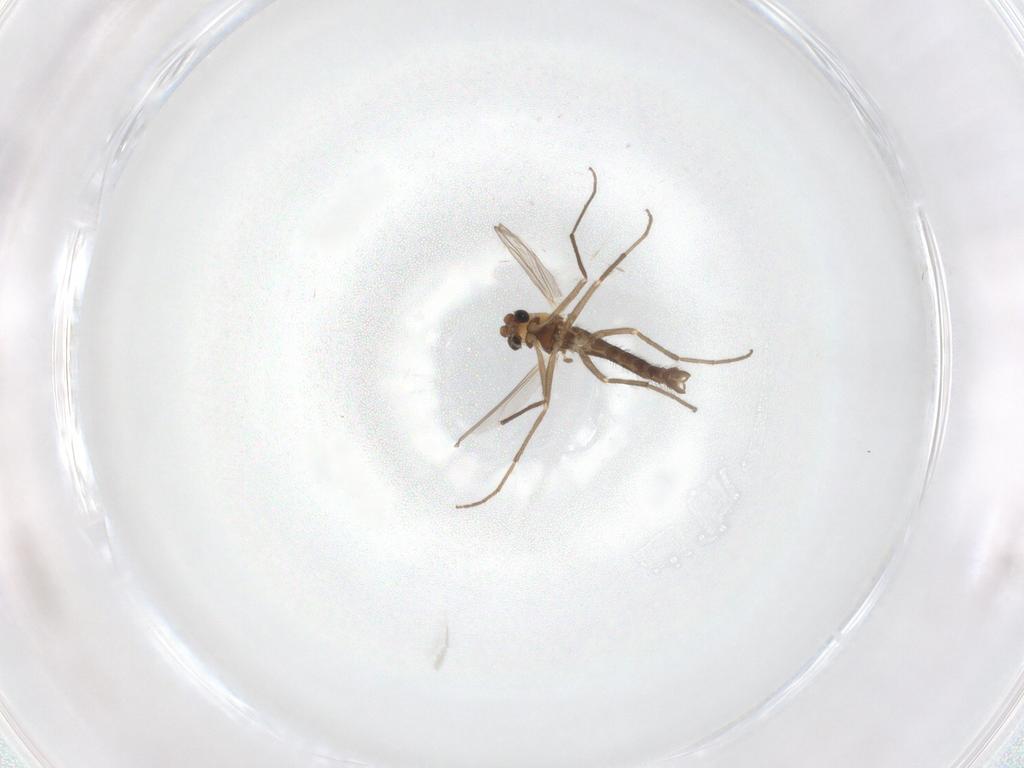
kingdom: Animalia
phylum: Arthropoda
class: Insecta
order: Diptera
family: Chironomidae
